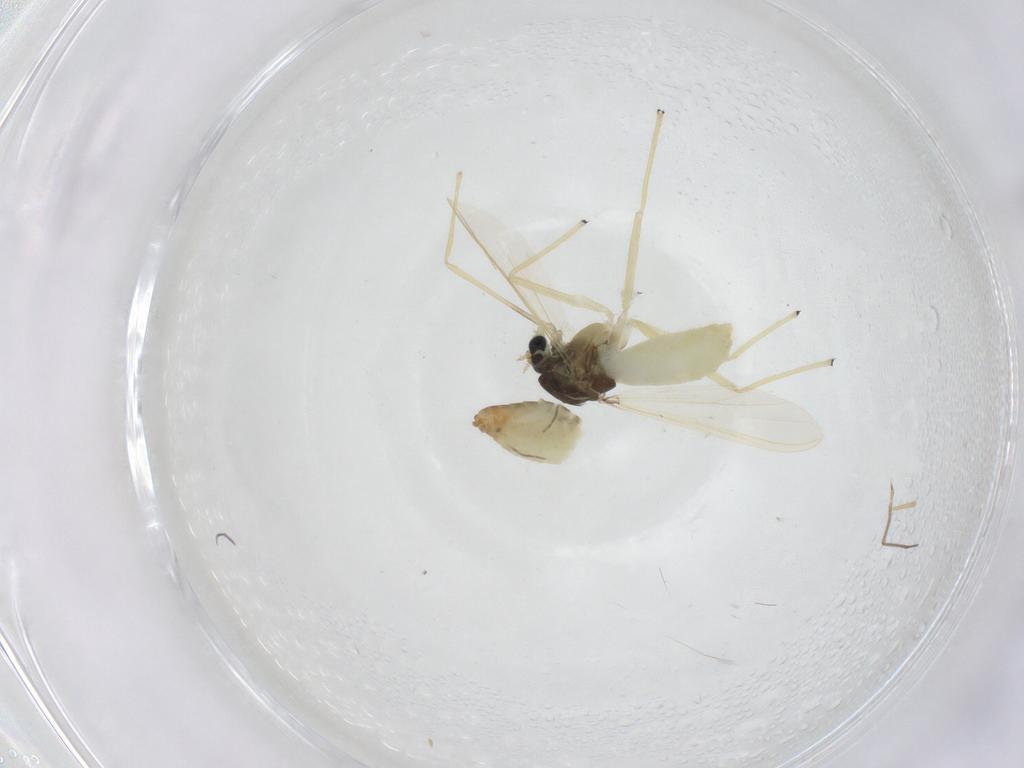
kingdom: Animalia
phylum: Arthropoda
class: Insecta
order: Diptera
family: Chironomidae
